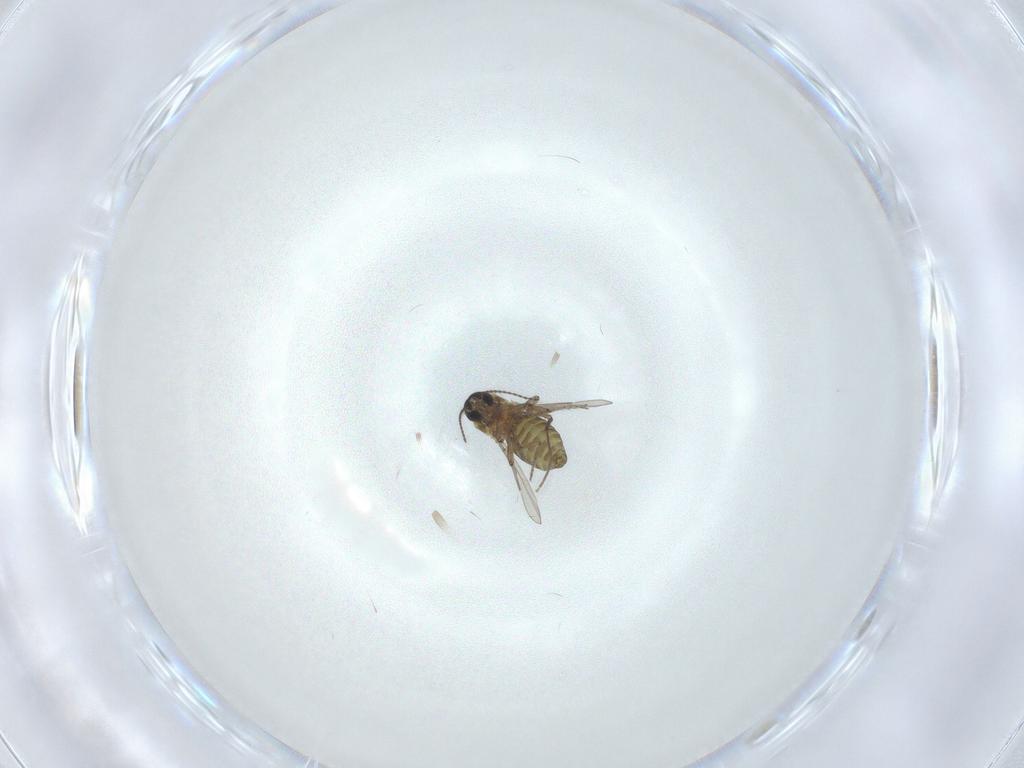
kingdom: Animalia
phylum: Arthropoda
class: Insecta
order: Diptera
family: Chironomidae
